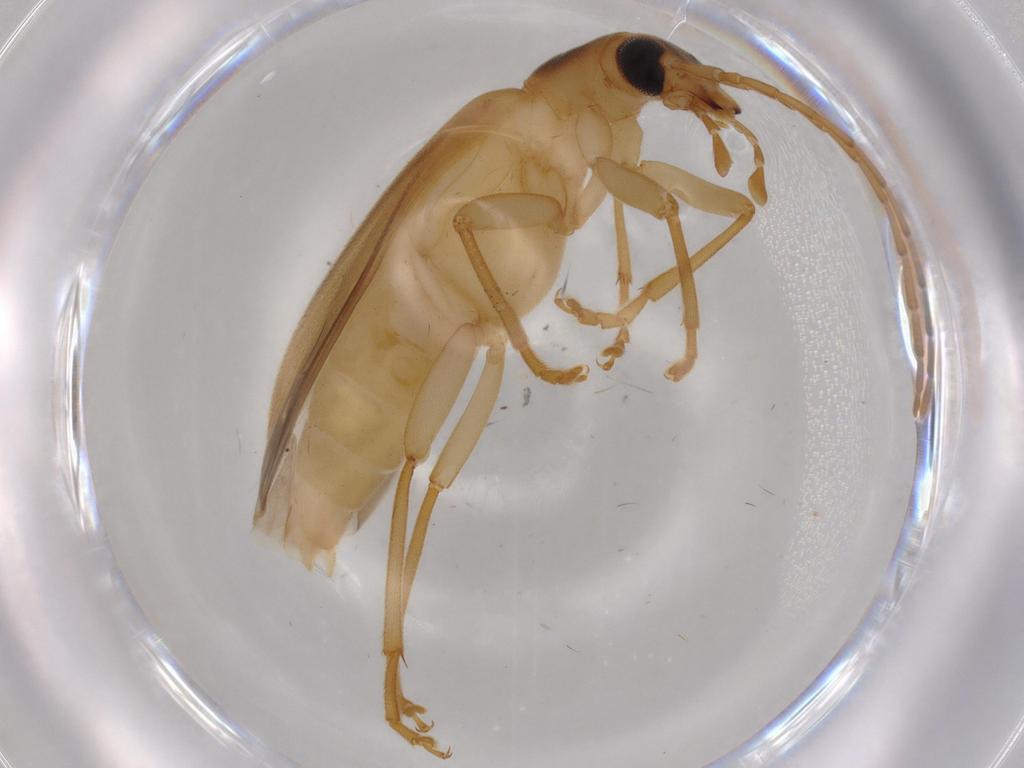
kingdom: Animalia
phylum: Arthropoda
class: Insecta
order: Coleoptera
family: Oedemeridae
